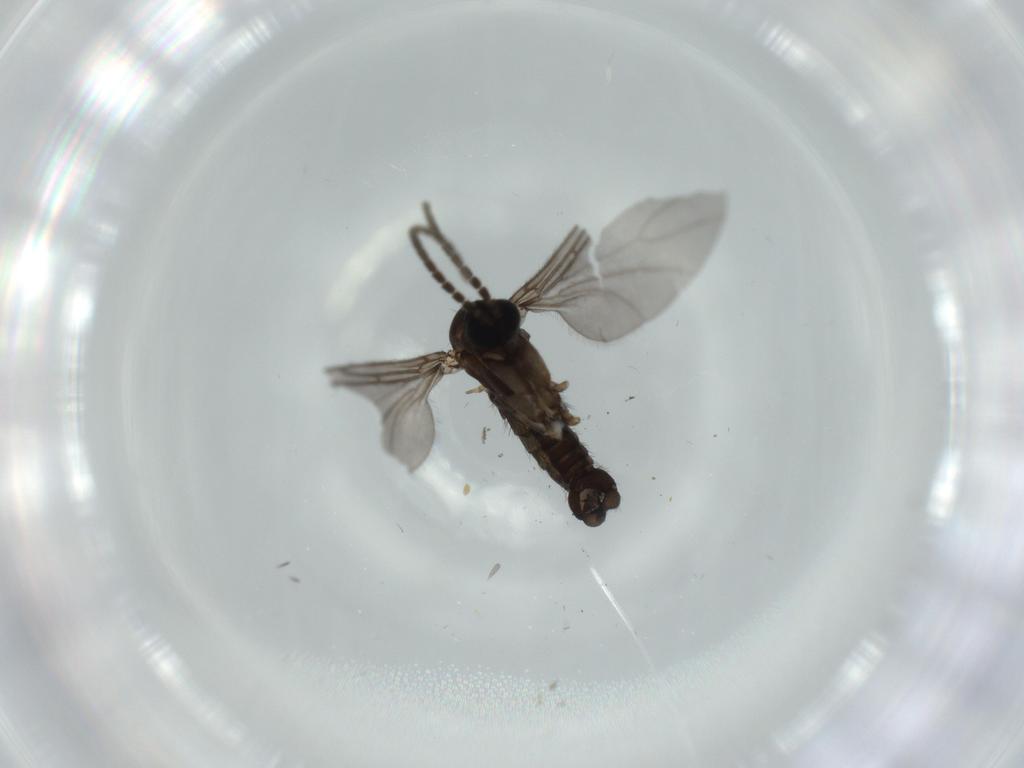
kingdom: Animalia
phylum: Arthropoda
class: Insecta
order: Diptera
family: Sciaridae
